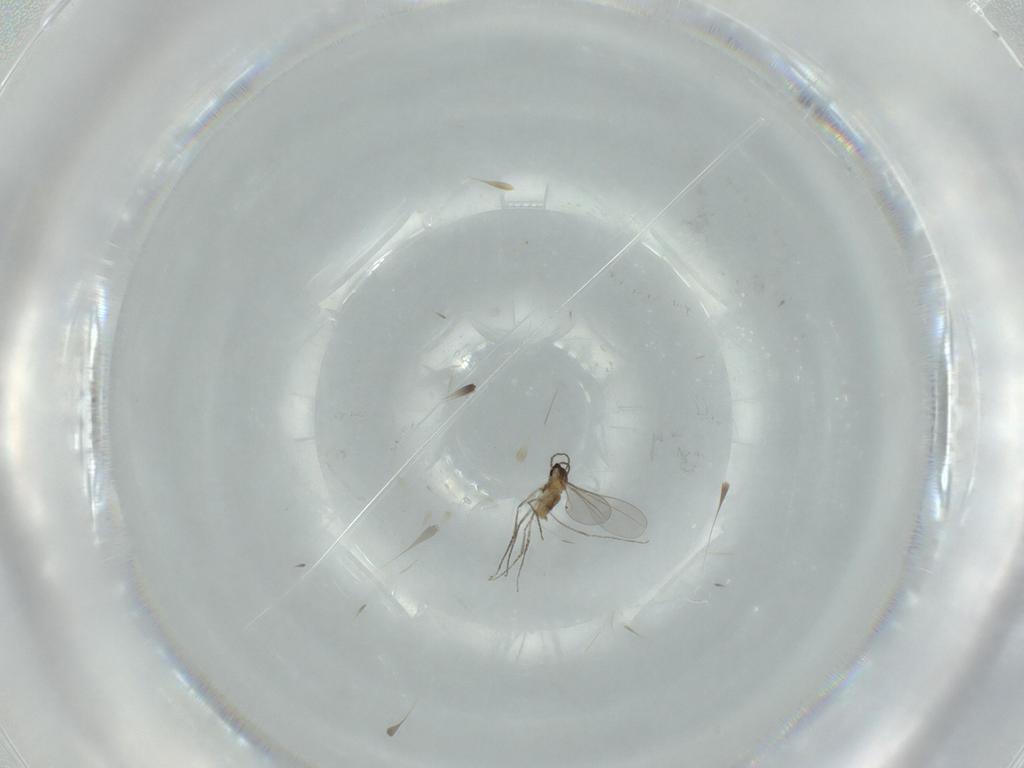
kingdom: Animalia
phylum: Arthropoda
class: Insecta
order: Diptera
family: Cecidomyiidae
